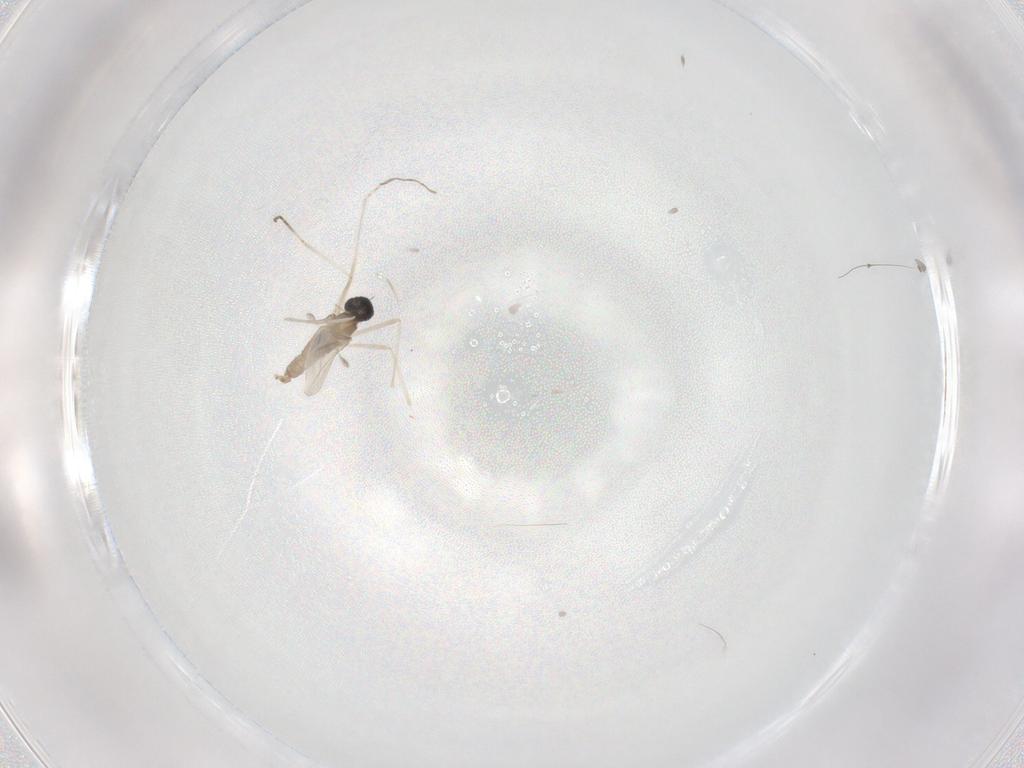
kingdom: Animalia
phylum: Arthropoda
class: Insecta
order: Diptera
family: Cecidomyiidae
